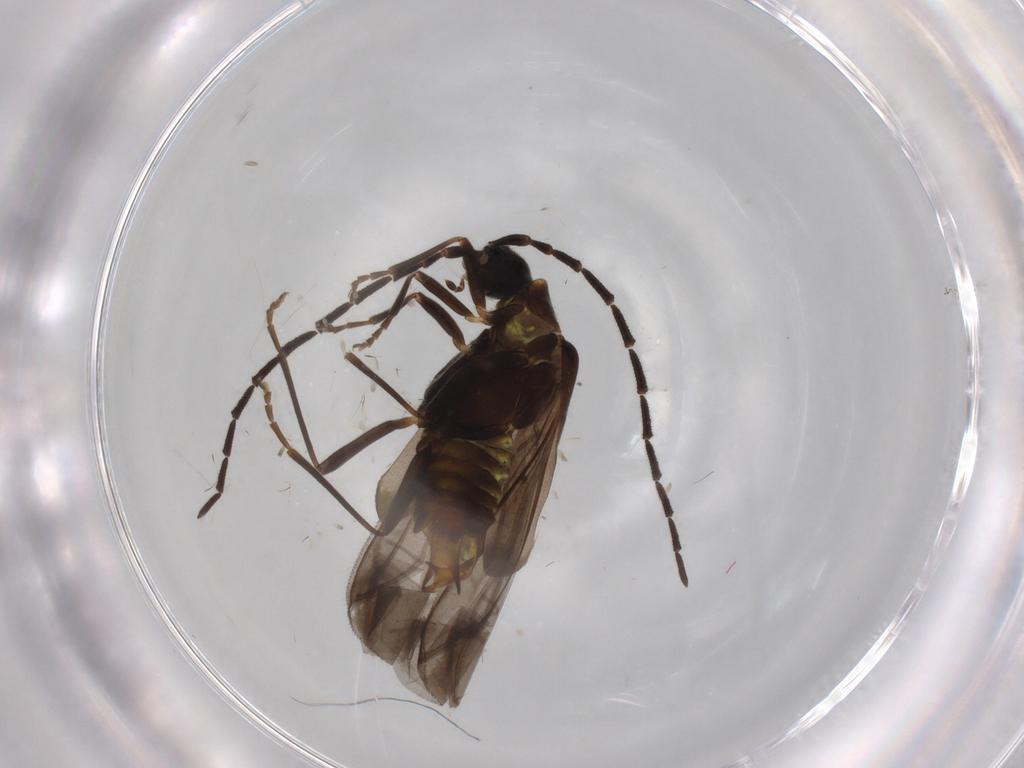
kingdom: Animalia
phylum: Arthropoda
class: Insecta
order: Coleoptera
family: Cantharidae
